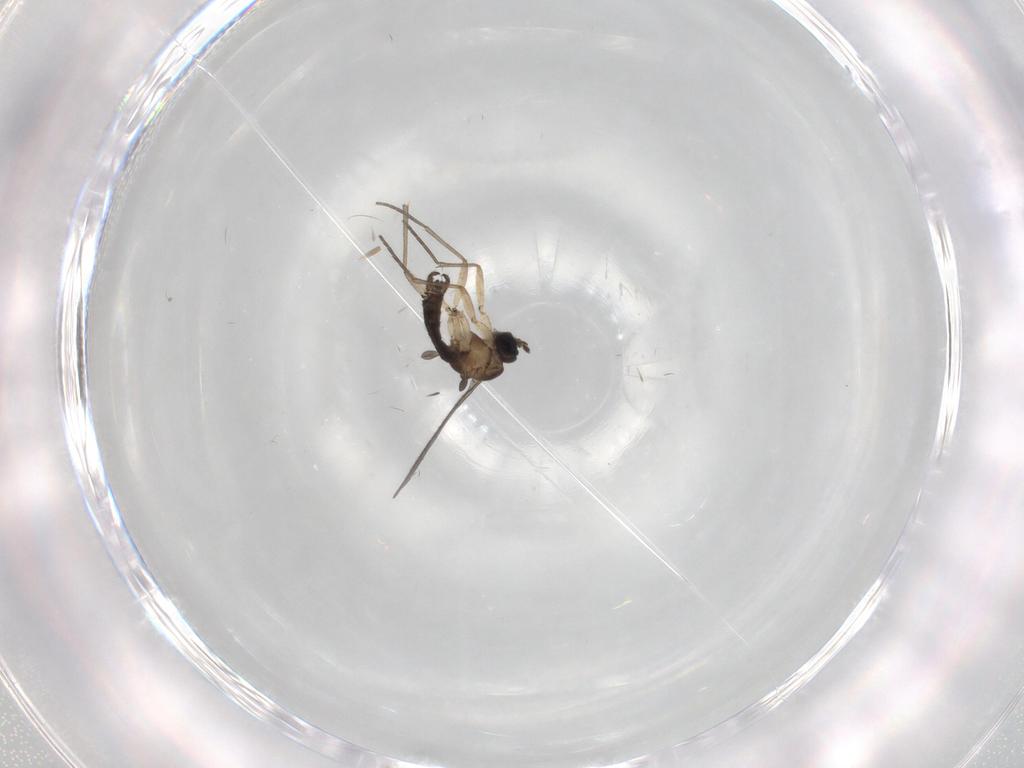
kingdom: Animalia
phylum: Arthropoda
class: Insecta
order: Diptera
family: Sciaridae
